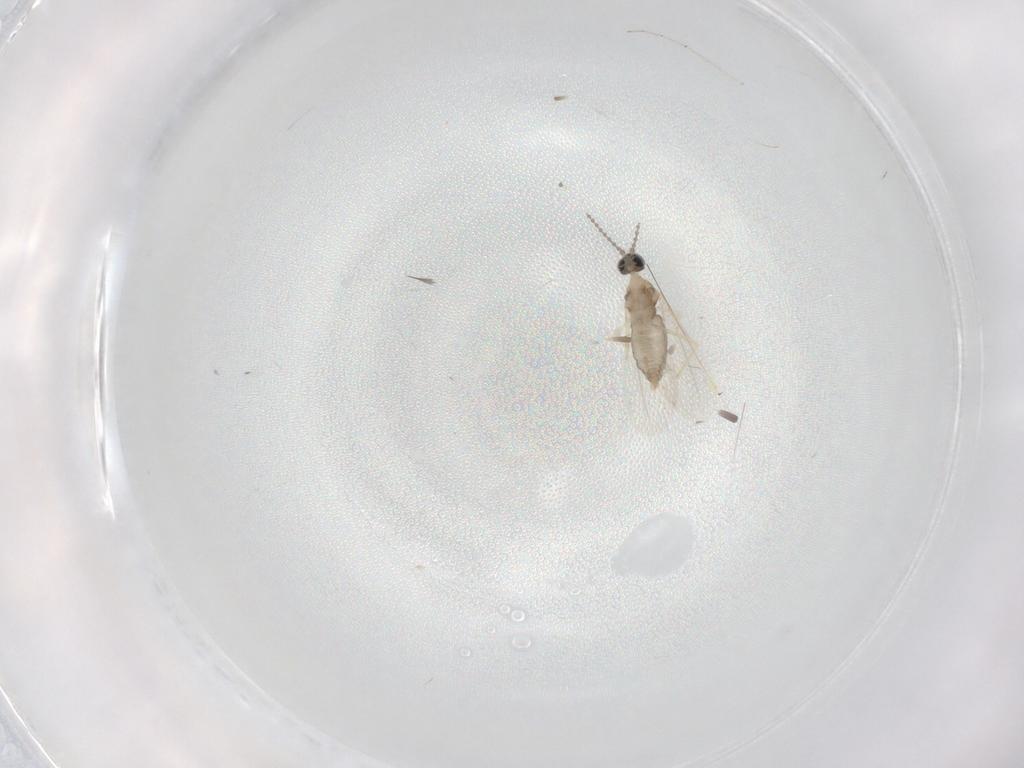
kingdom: Animalia
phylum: Arthropoda
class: Insecta
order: Diptera
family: Cecidomyiidae
